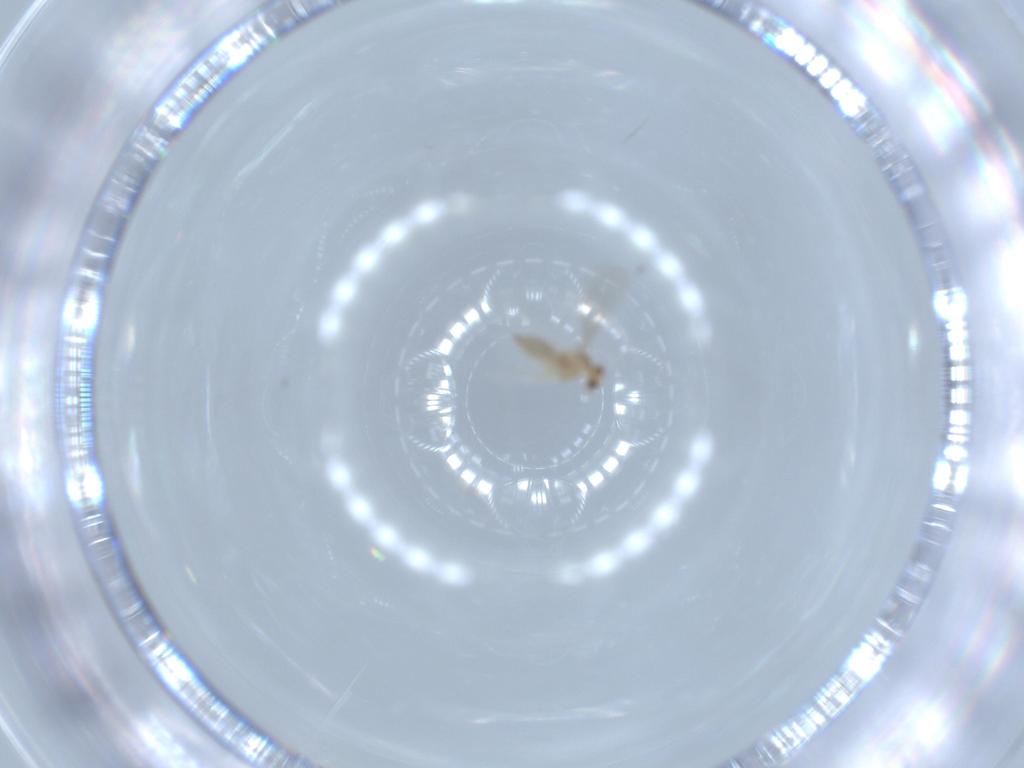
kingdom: Animalia
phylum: Arthropoda
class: Insecta
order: Diptera
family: Cecidomyiidae
